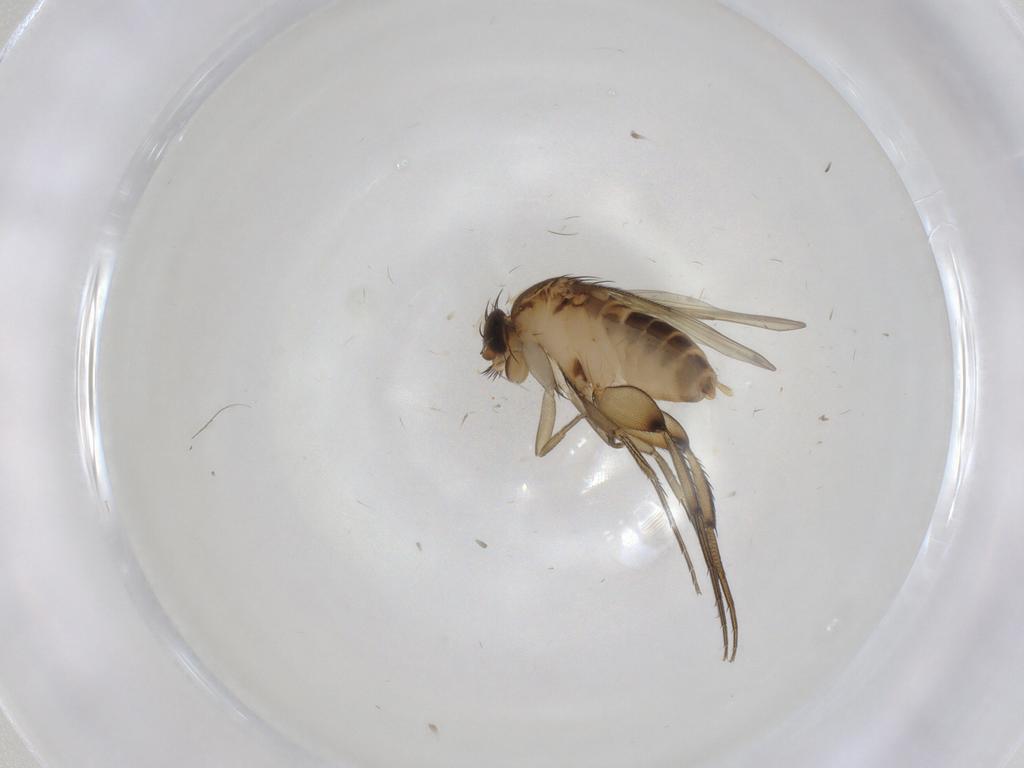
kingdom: Animalia
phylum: Arthropoda
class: Insecta
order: Diptera
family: Phoridae
